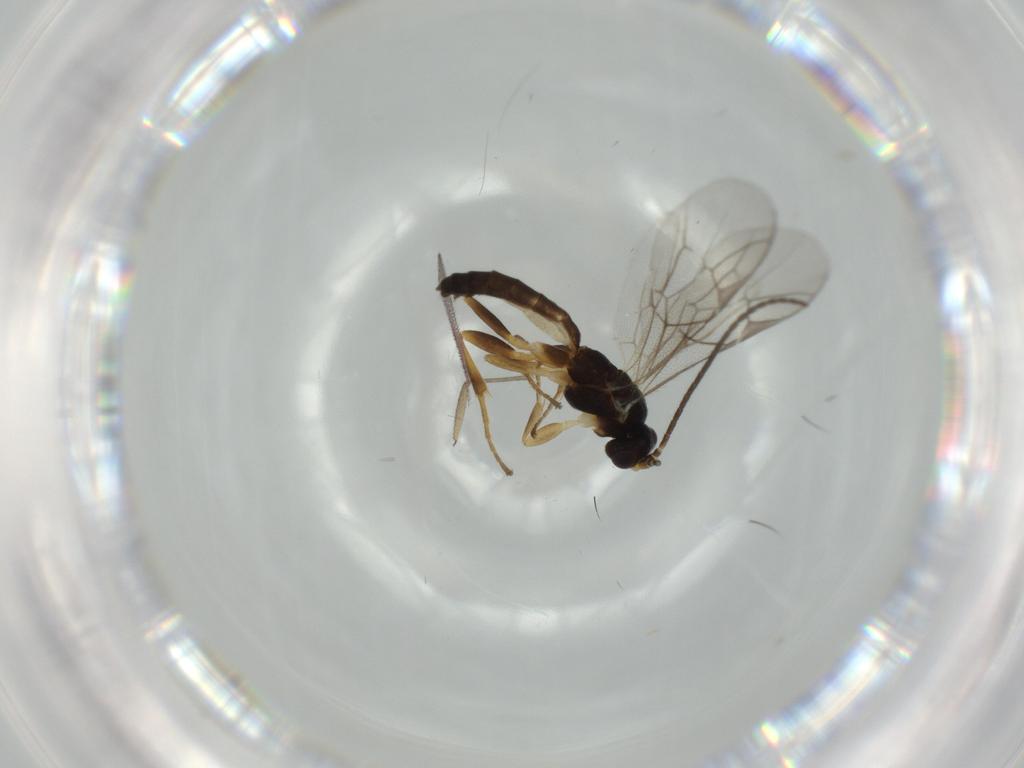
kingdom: Animalia
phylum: Arthropoda
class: Insecta
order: Hymenoptera
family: Ichneumonidae
